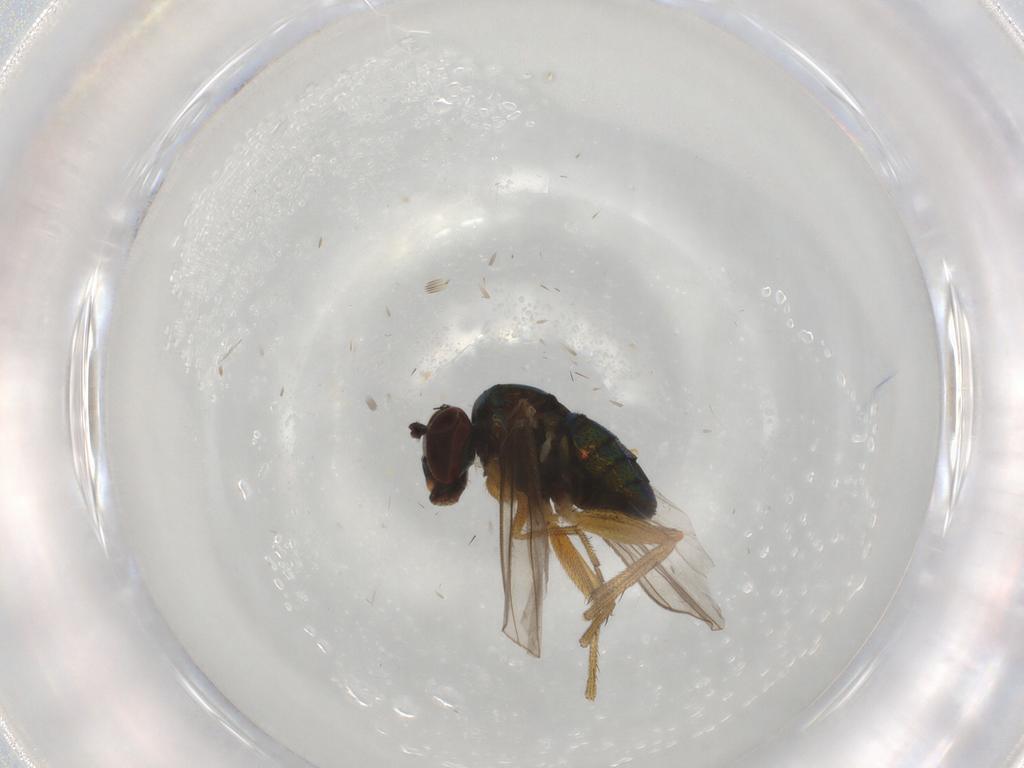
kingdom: Animalia
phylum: Arthropoda
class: Insecta
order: Diptera
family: Dolichopodidae
